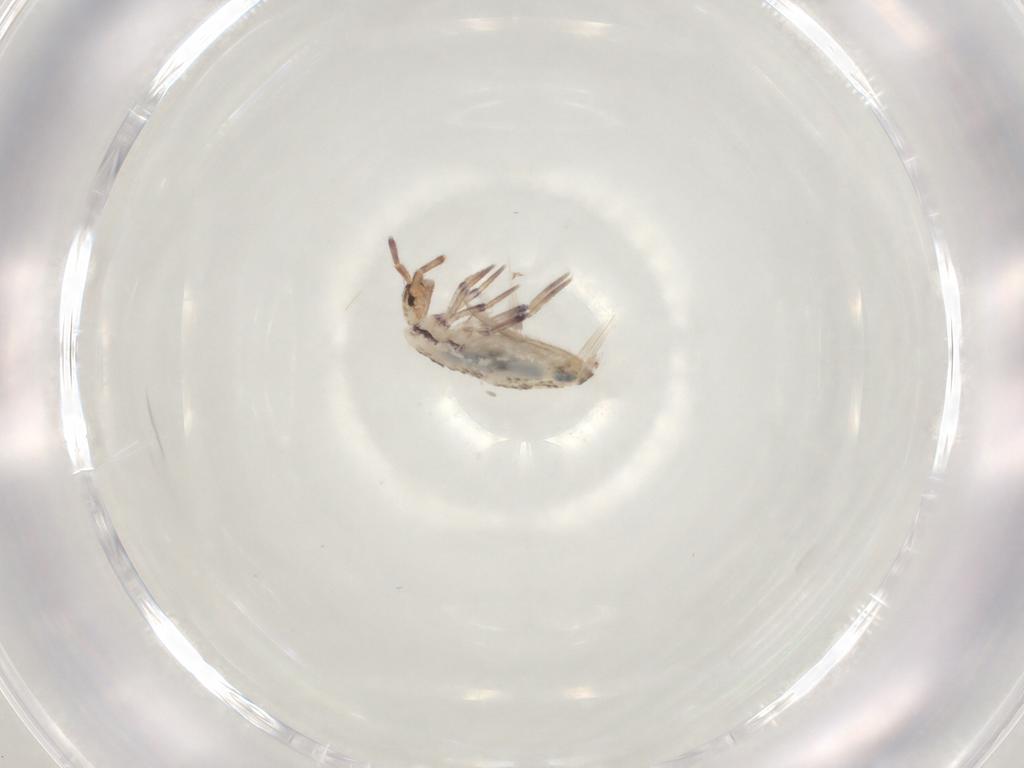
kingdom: Animalia
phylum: Arthropoda
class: Collembola
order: Entomobryomorpha
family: Entomobryidae
